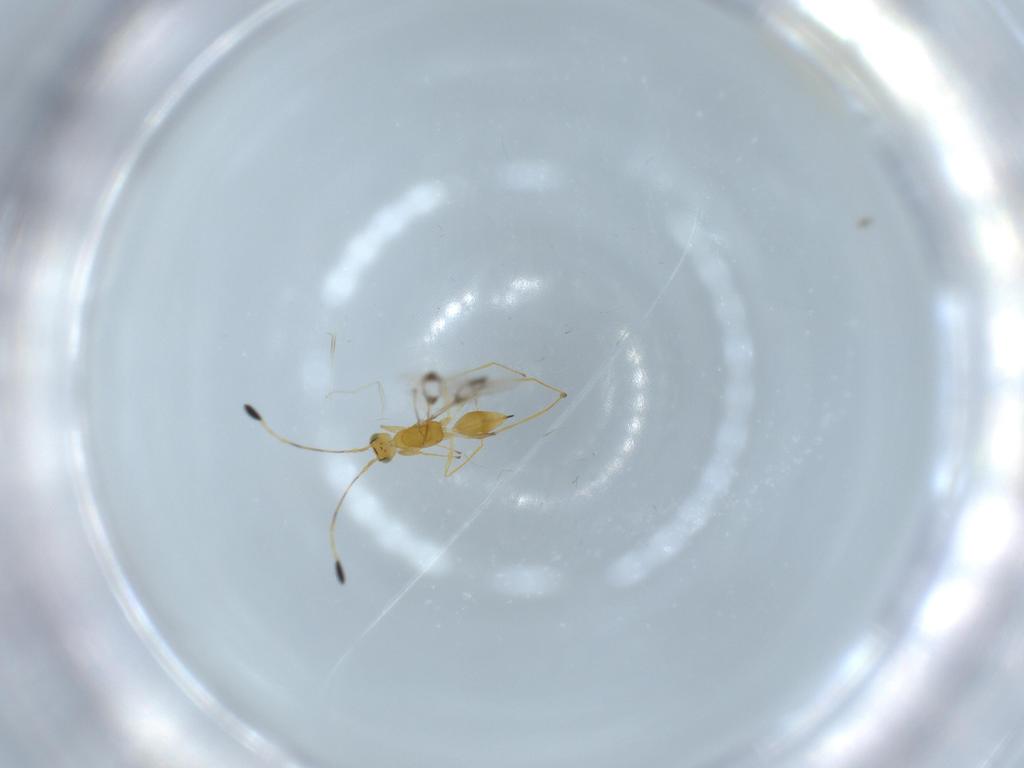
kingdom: Animalia
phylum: Arthropoda
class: Insecta
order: Hymenoptera
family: Mymaridae
